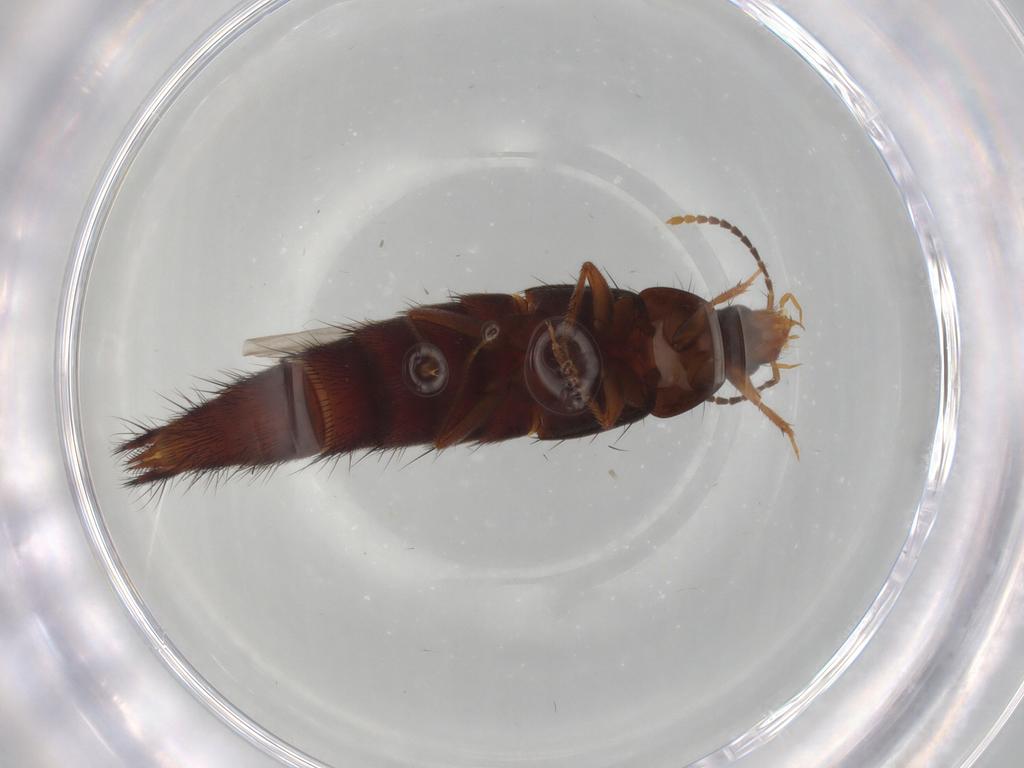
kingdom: Animalia
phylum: Arthropoda
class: Insecta
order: Coleoptera
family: Staphylinidae
